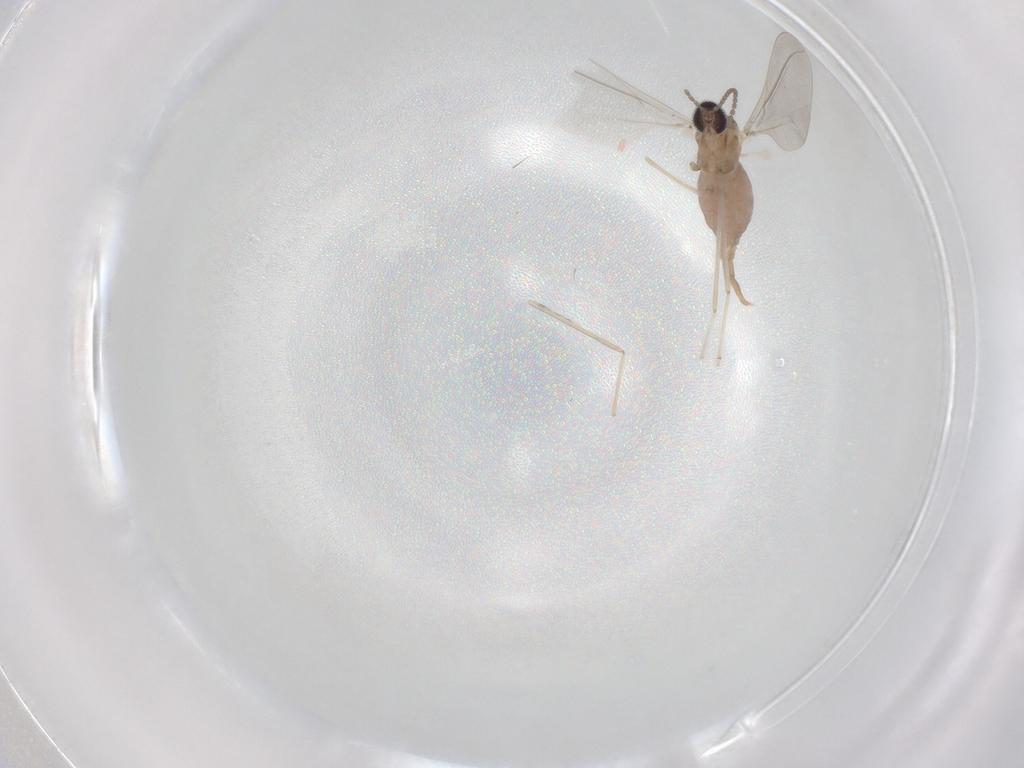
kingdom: Animalia
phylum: Arthropoda
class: Insecta
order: Diptera
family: Cecidomyiidae
